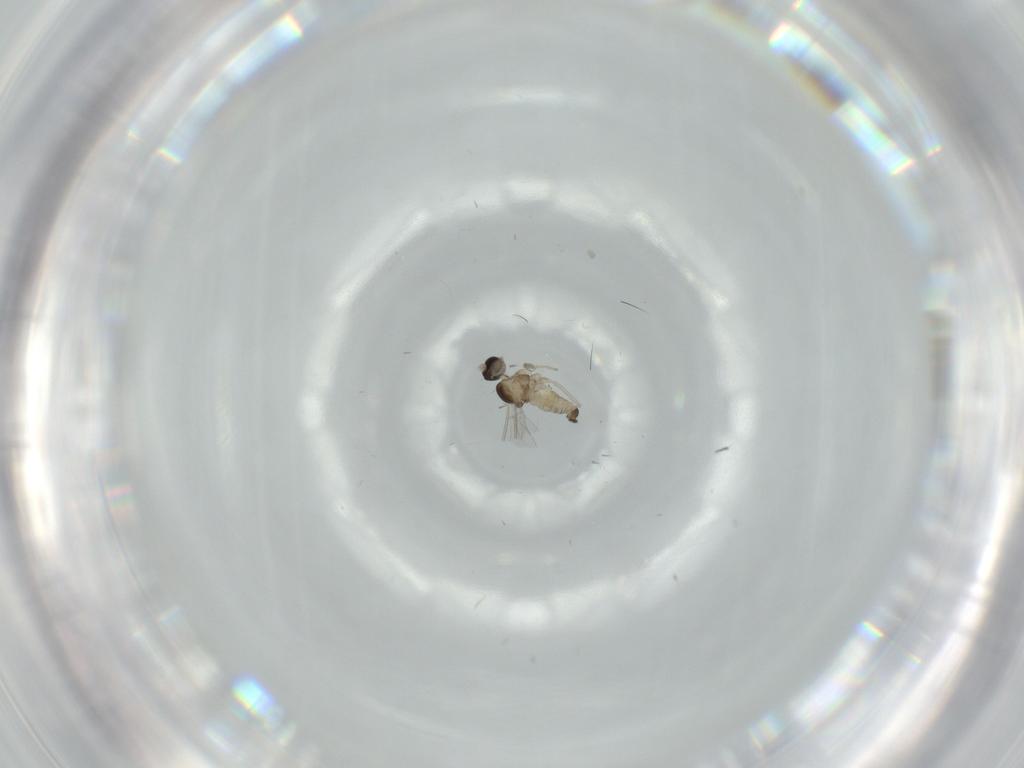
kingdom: Animalia
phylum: Arthropoda
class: Insecta
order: Diptera
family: Cecidomyiidae
